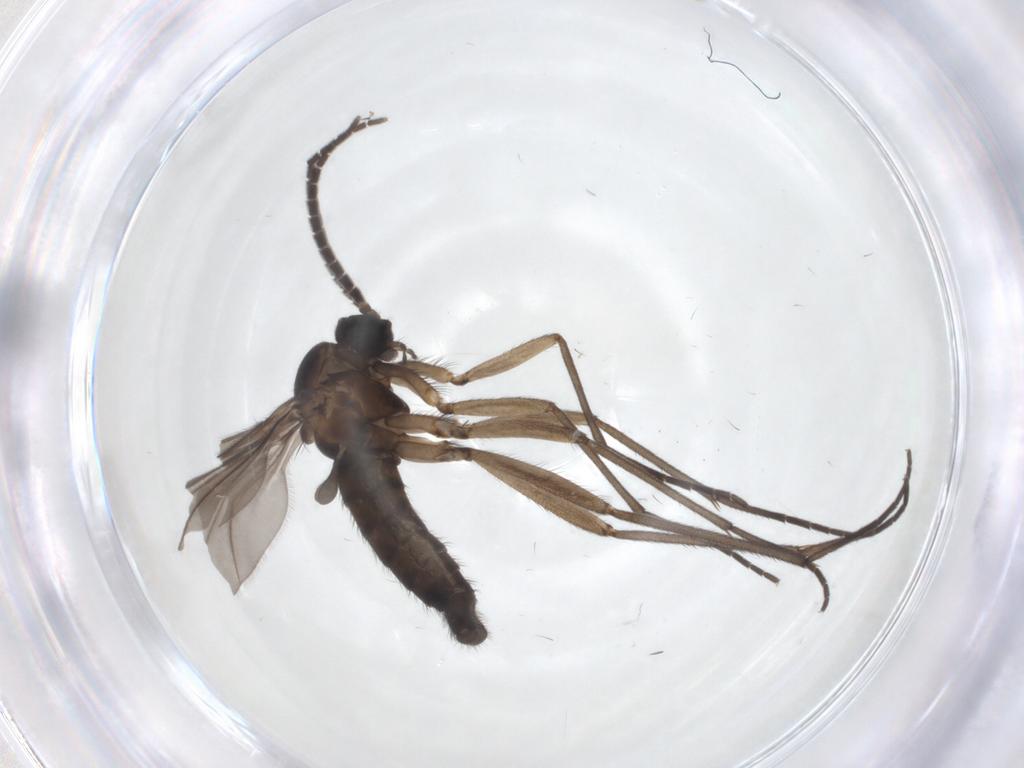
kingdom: Animalia
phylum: Arthropoda
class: Insecta
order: Diptera
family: Sciaridae
